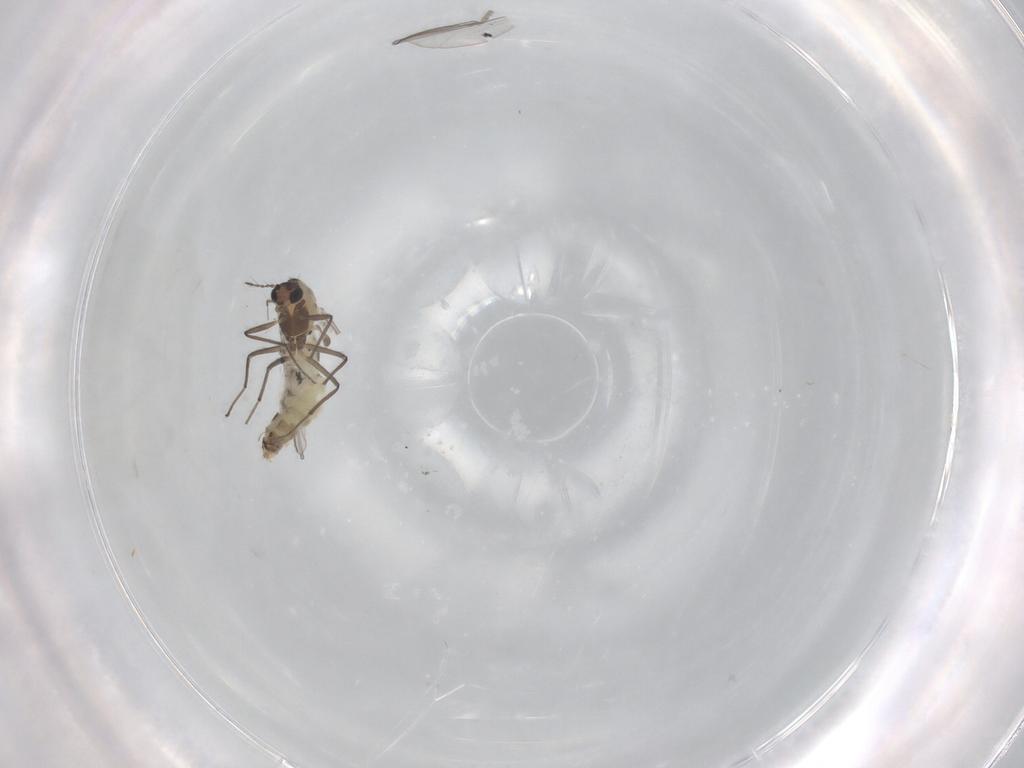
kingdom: Animalia
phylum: Arthropoda
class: Insecta
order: Diptera
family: Chironomidae
